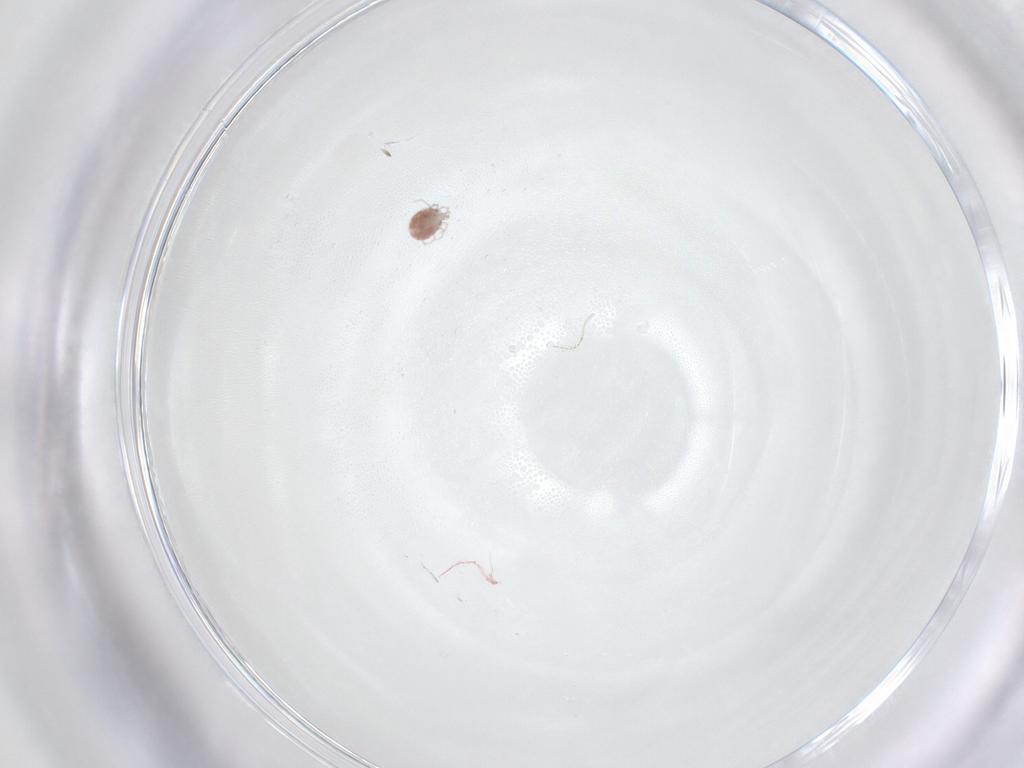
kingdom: Animalia
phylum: Arthropoda
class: Arachnida
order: Trombidiformes
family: Pionidae
